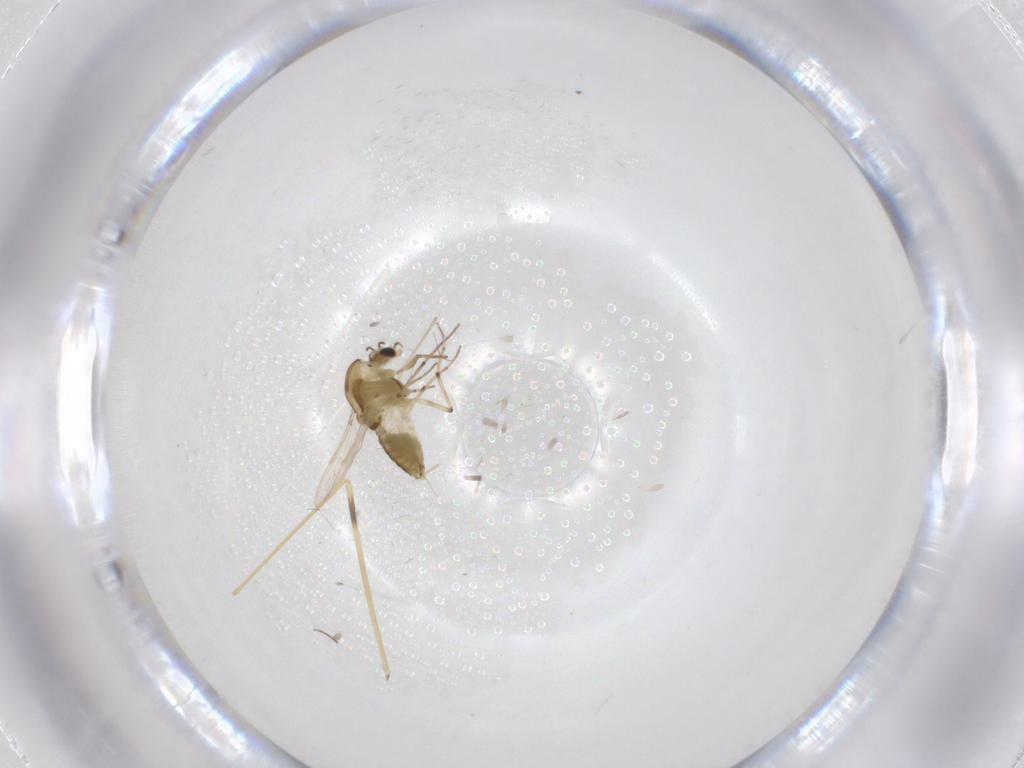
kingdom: Animalia
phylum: Arthropoda
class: Insecta
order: Diptera
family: Chironomidae
